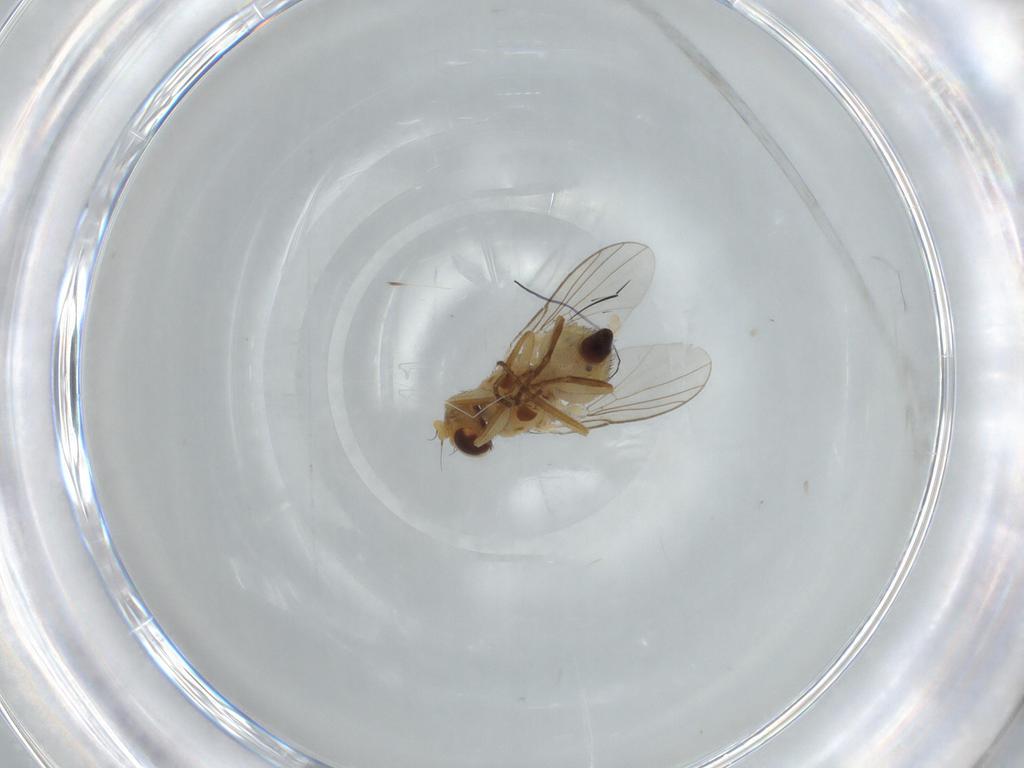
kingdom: Animalia
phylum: Arthropoda
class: Insecta
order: Diptera
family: Agromyzidae
